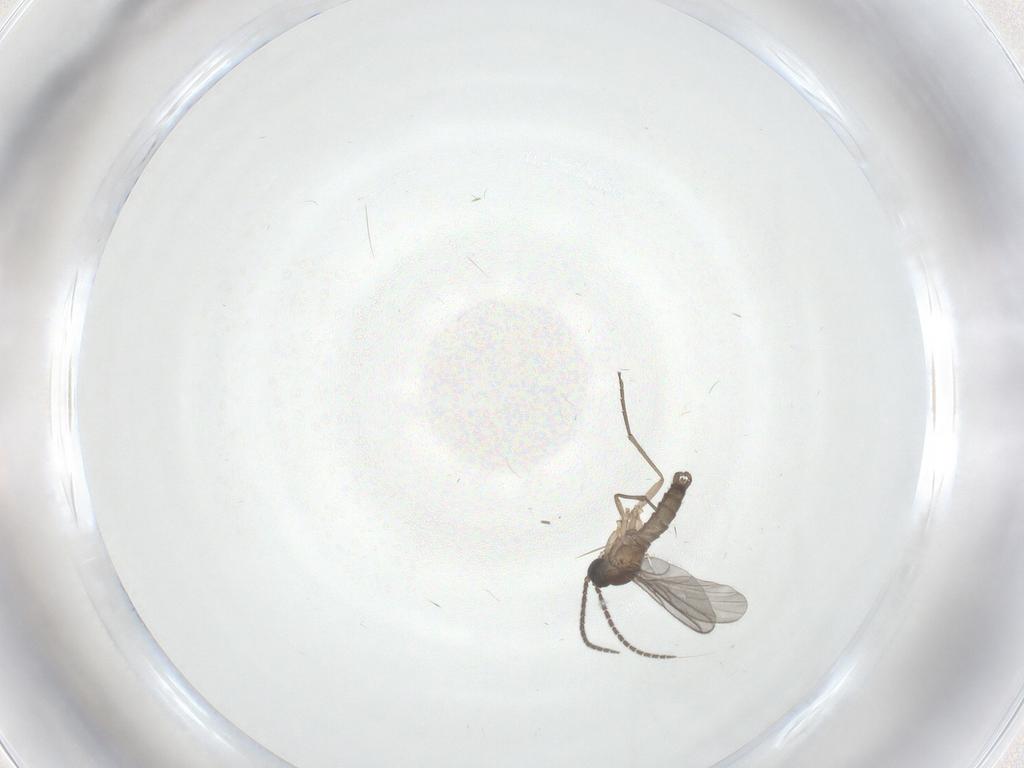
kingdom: Animalia
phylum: Arthropoda
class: Insecta
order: Diptera
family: Sciaridae
